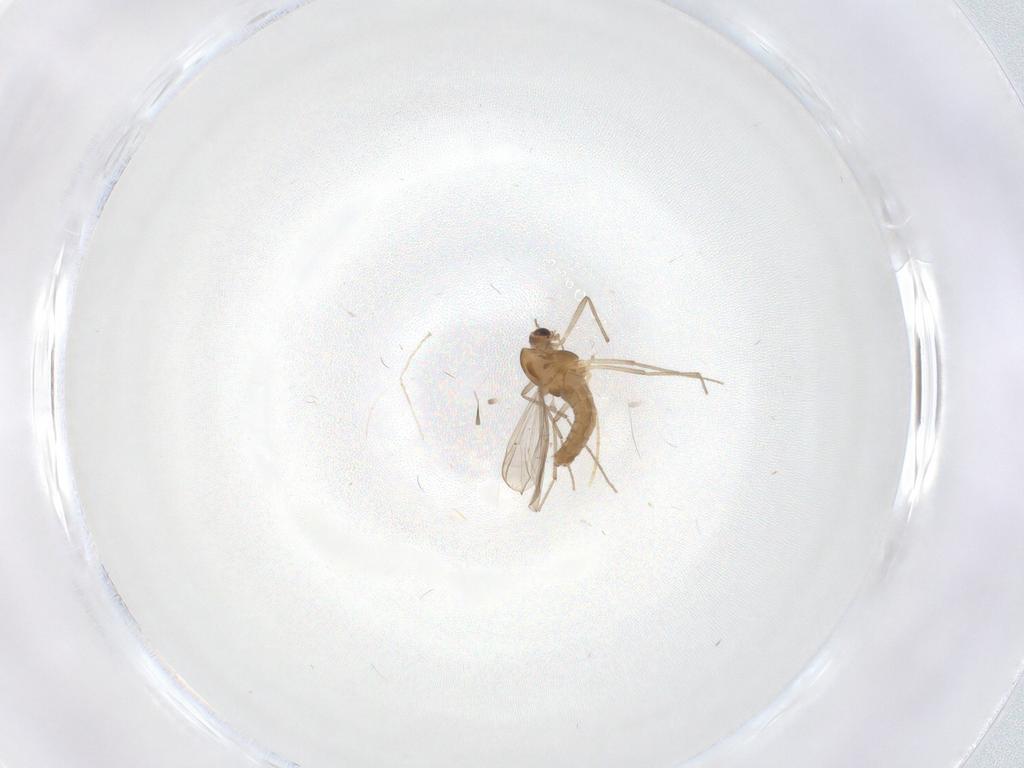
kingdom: Animalia
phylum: Arthropoda
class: Insecta
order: Diptera
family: Chironomidae
